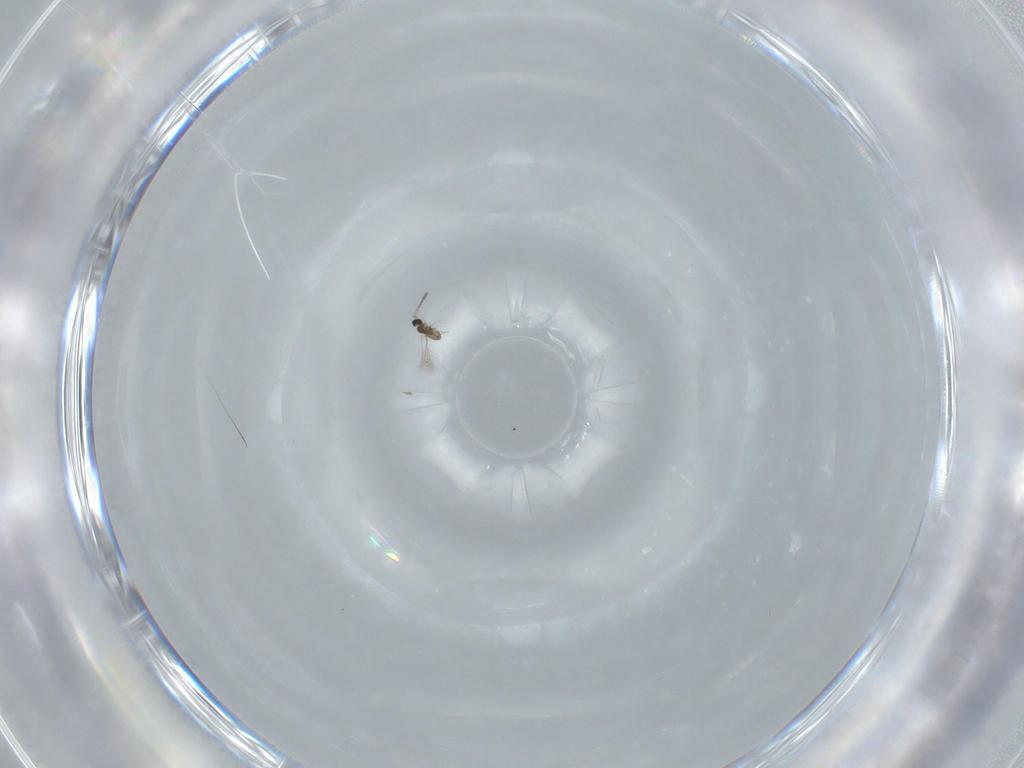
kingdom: Animalia
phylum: Arthropoda
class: Insecta
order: Hymenoptera
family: Mymaridae
